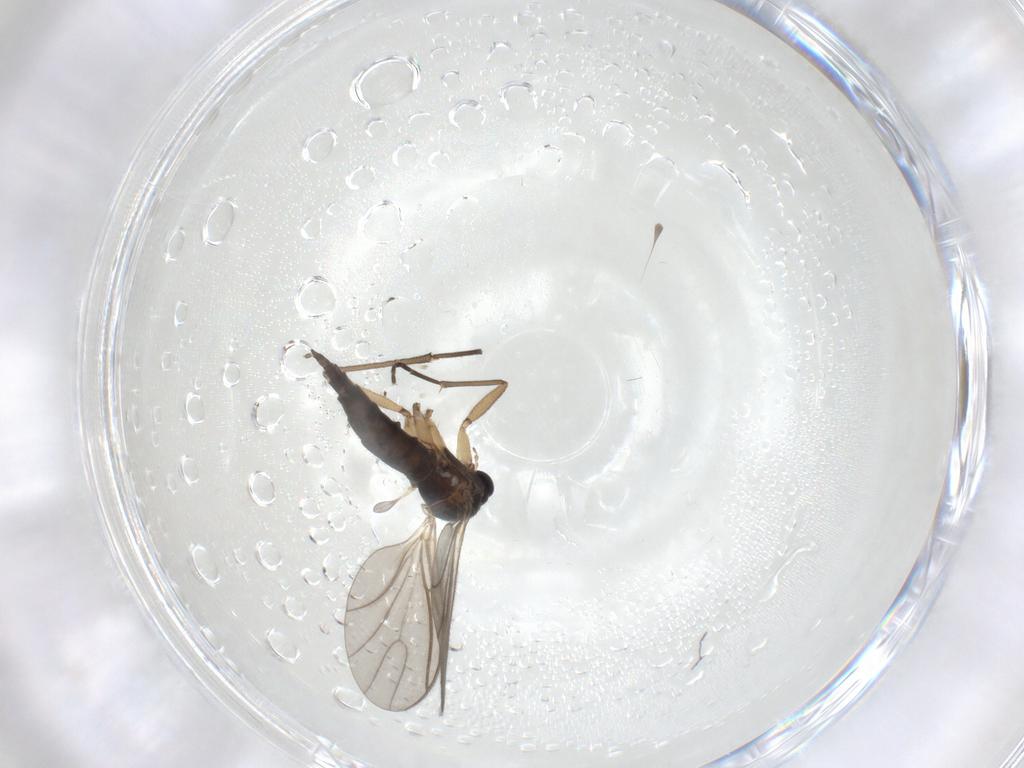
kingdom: Animalia
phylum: Arthropoda
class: Insecta
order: Diptera
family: Sciaridae
